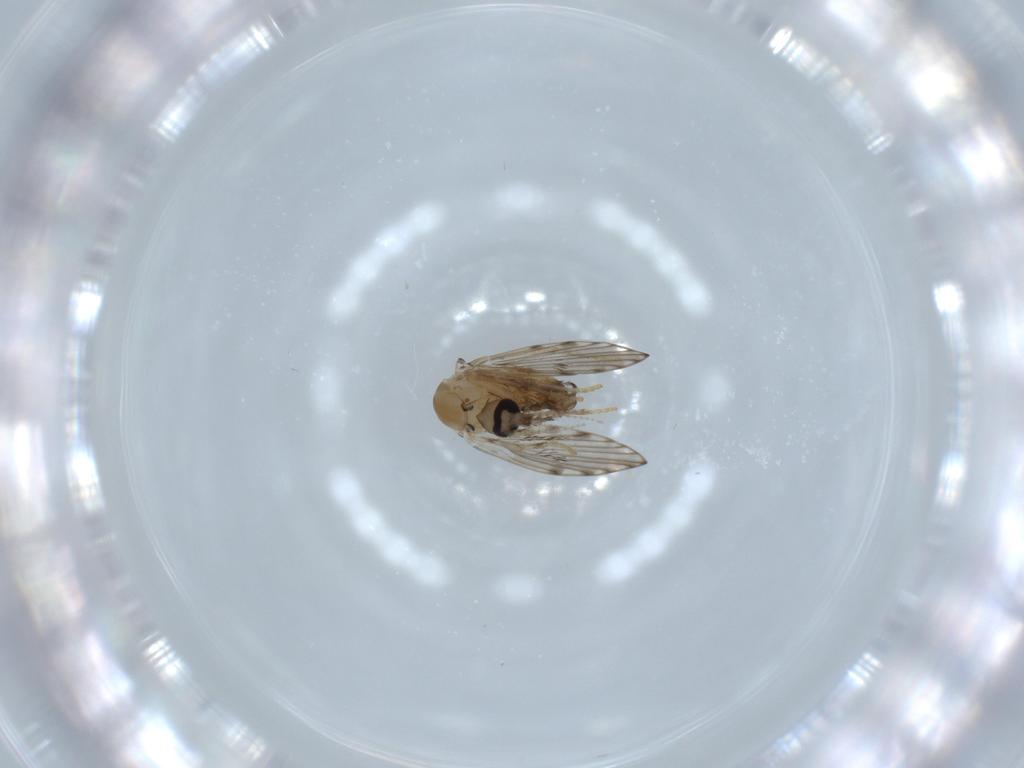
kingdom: Animalia
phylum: Arthropoda
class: Insecta
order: Diptera
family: Psychodidae
